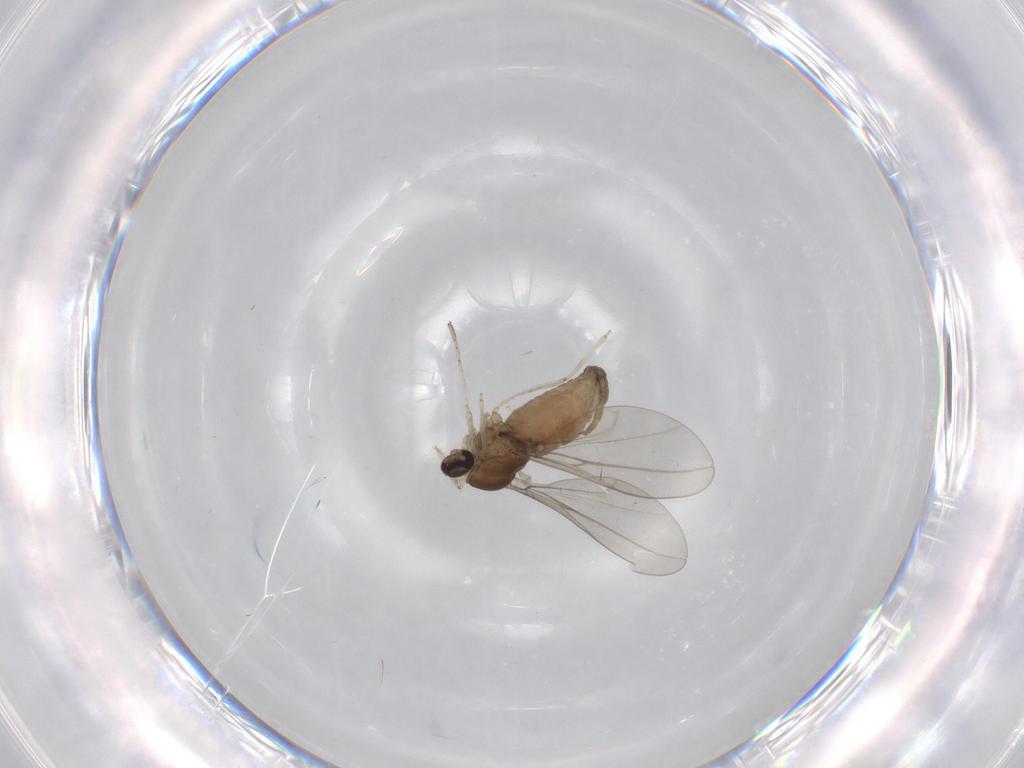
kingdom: Animalia
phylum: Arthropoda
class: Insecta
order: Diptera
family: Cecidomyiidae
